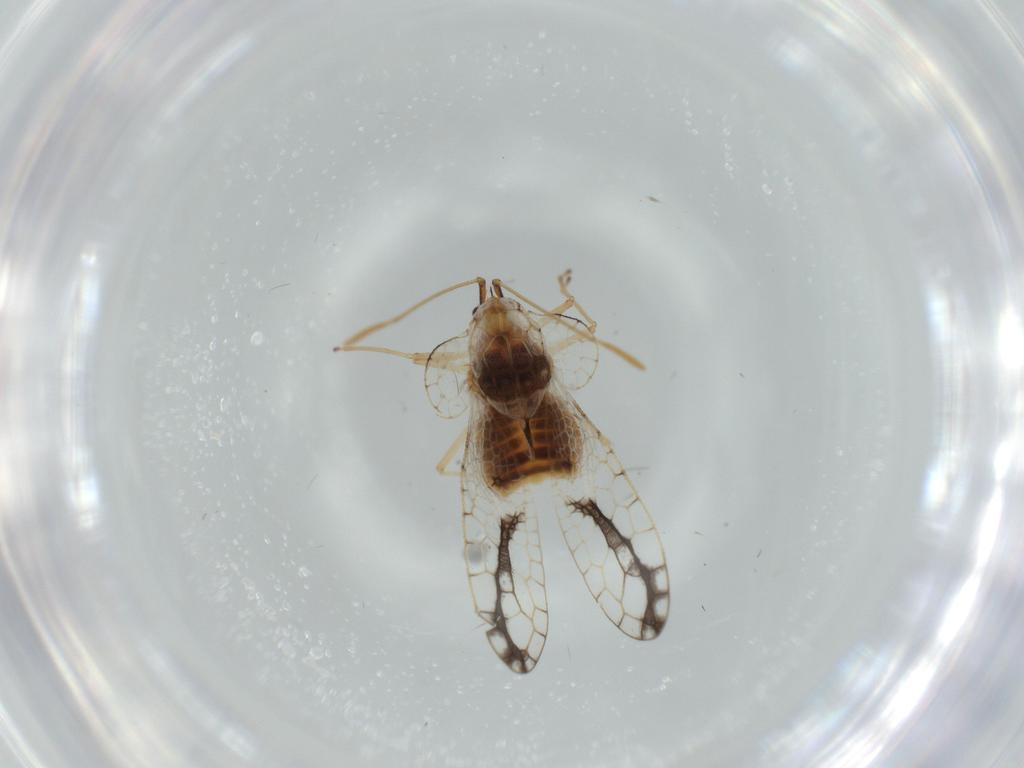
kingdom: Animalia
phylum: Arthropoda
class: Insecta
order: Hemiptera
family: Tingidae
